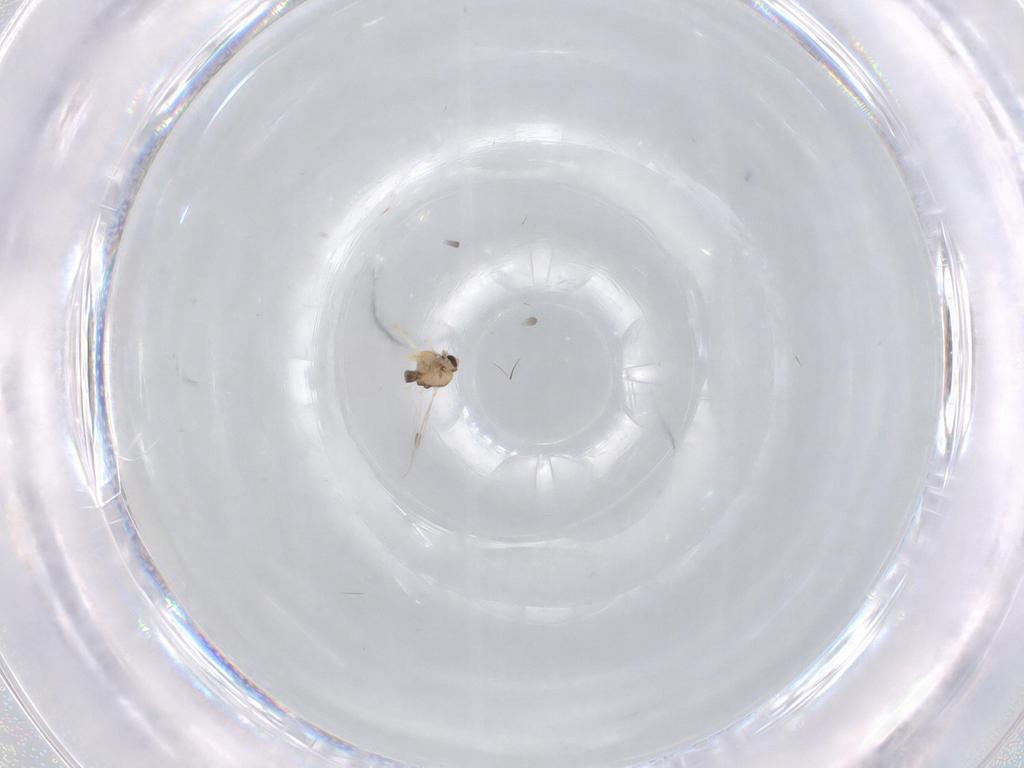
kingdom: Animalia
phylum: Arthropoda
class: Insecta
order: Diptera
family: Chironomidae
